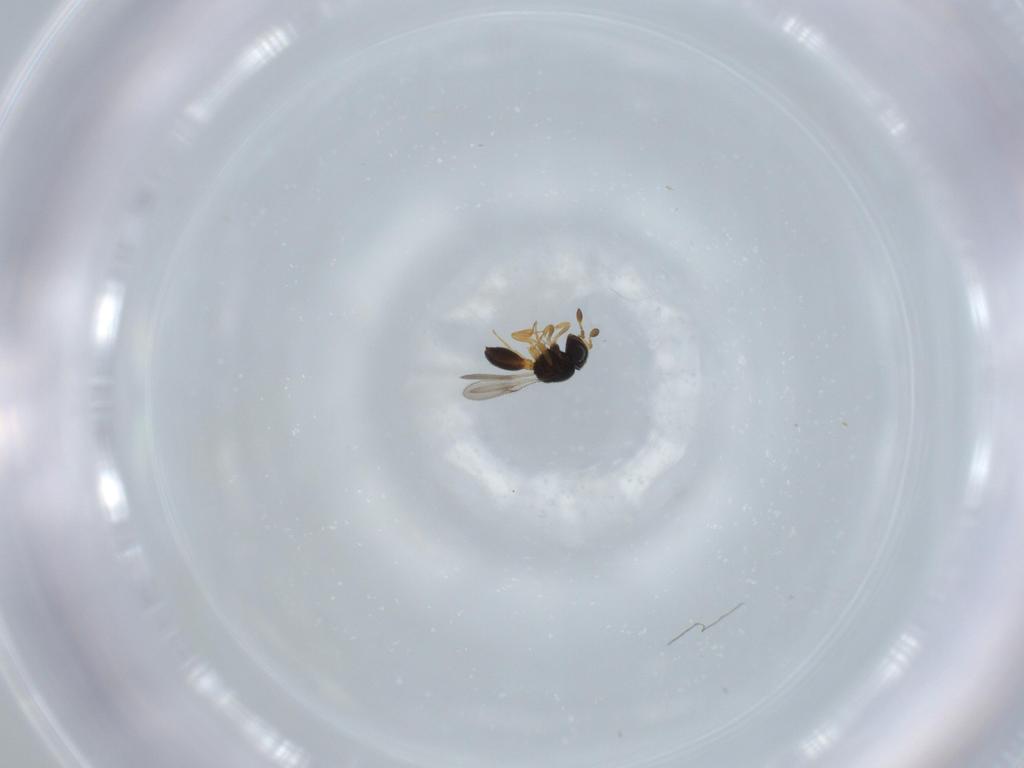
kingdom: Animalia
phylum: Arthropoda
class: Insecta
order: Hymenoptera
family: Scelionidae
